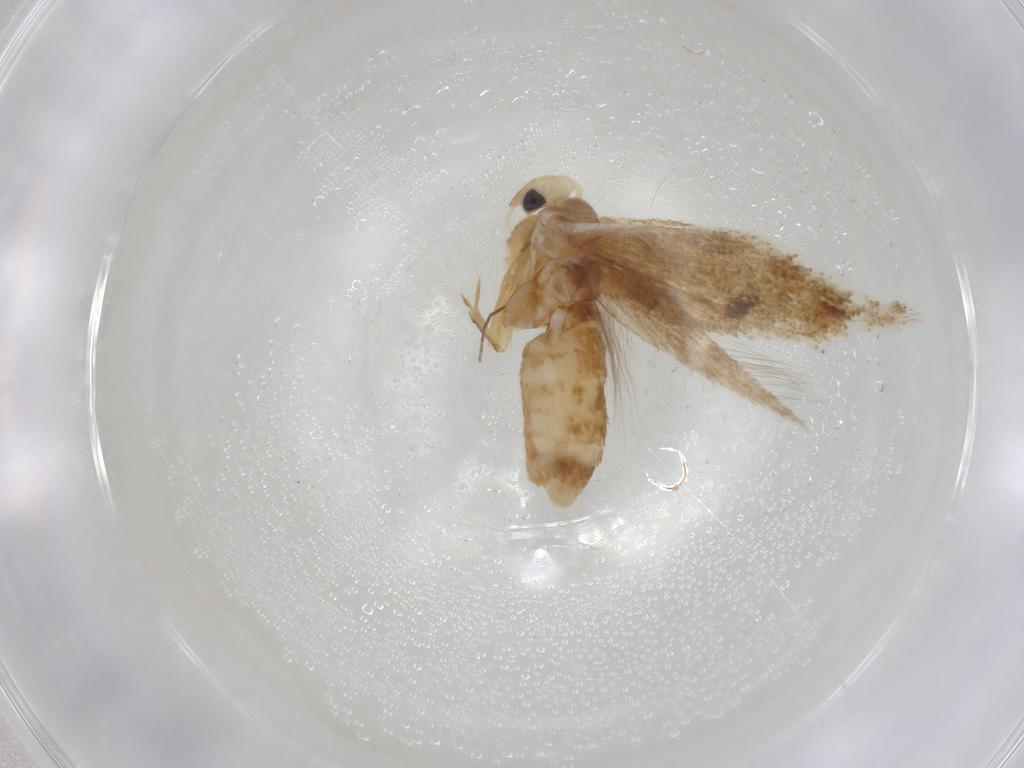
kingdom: Animalia
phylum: Arthropoda
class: Insecta
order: Lepidoptera
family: Bucculatricidae
